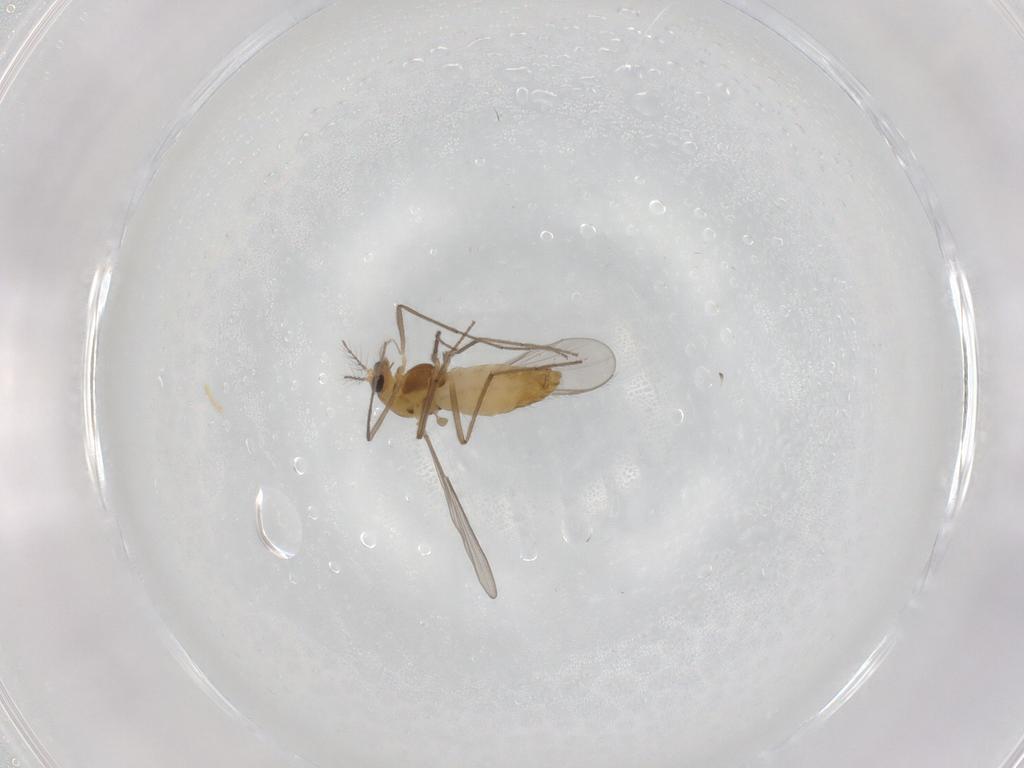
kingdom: Animalia
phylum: Arthropoda
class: Insecta
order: Diptera
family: Chironomidae
